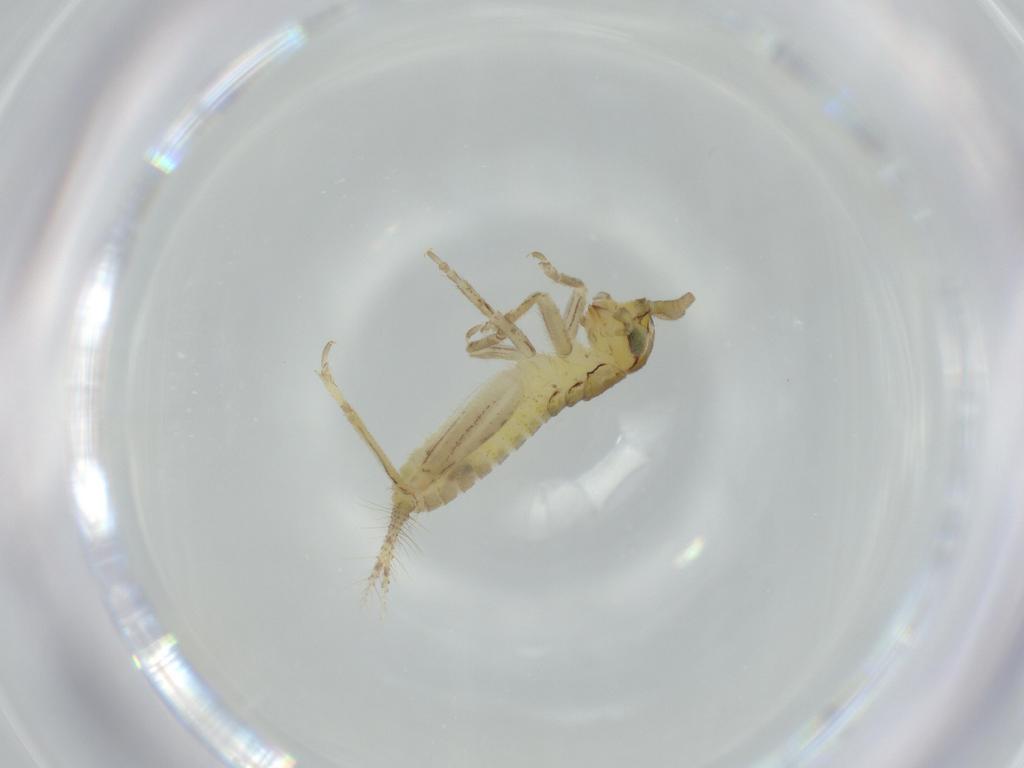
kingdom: Animalia
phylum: Arthropoda
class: Insecta
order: Orthoptera
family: Gryllidae
